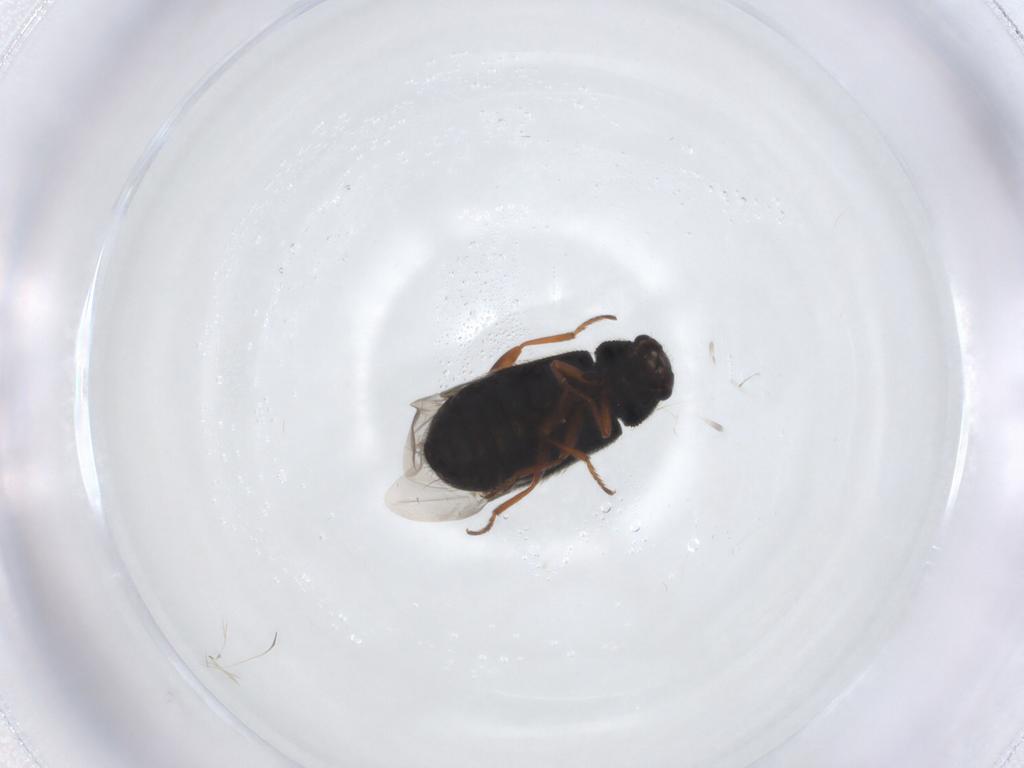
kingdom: Animalia
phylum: Arthropoda
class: Insecta
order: Coleoptera
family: Melyridae
